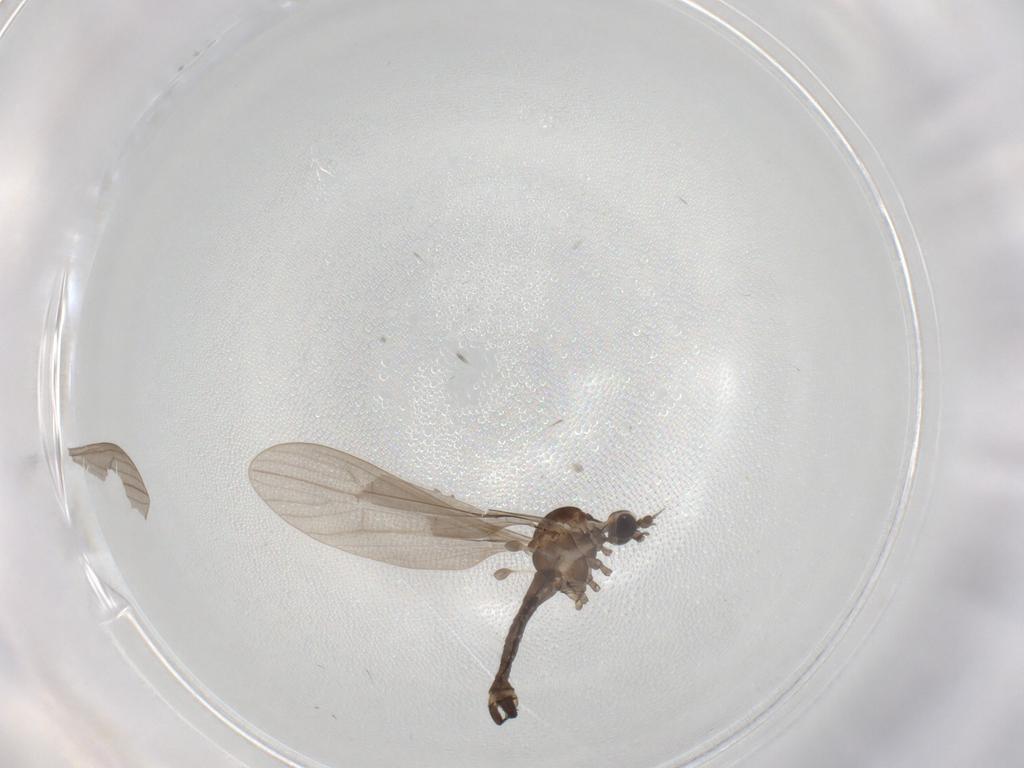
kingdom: Animalia
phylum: Arthropoda
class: Insecta
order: Diptera
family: Limoniidae
